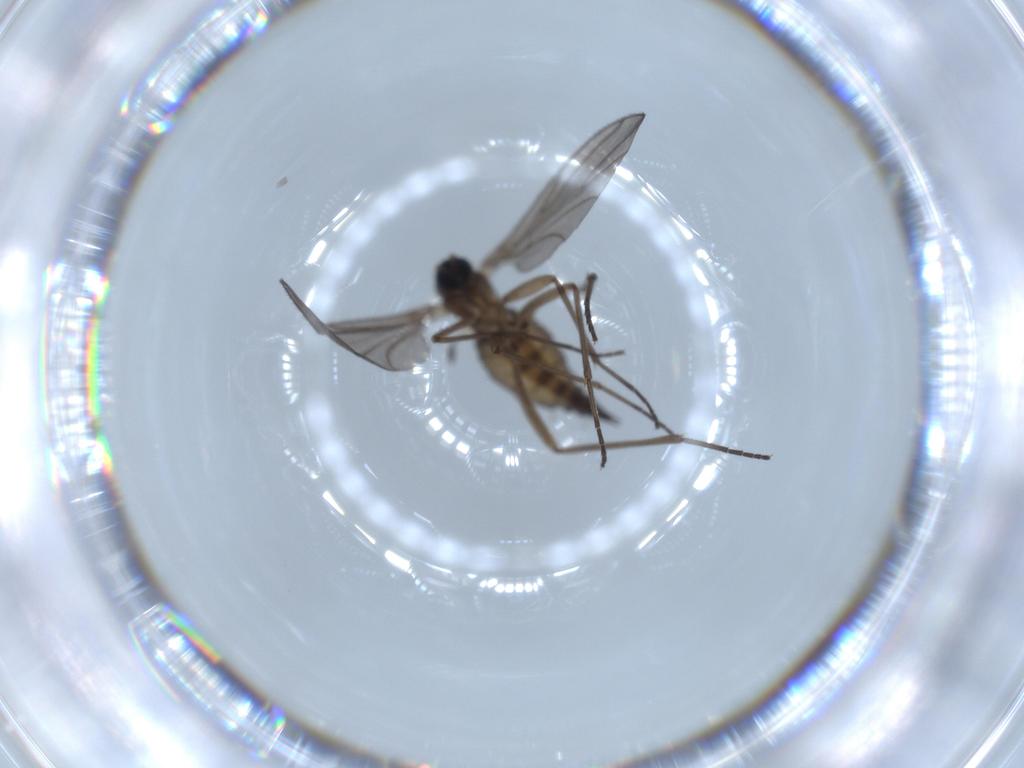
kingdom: Animalia
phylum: Arthropoda
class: Insecta
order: Diptera
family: Sciaridae
